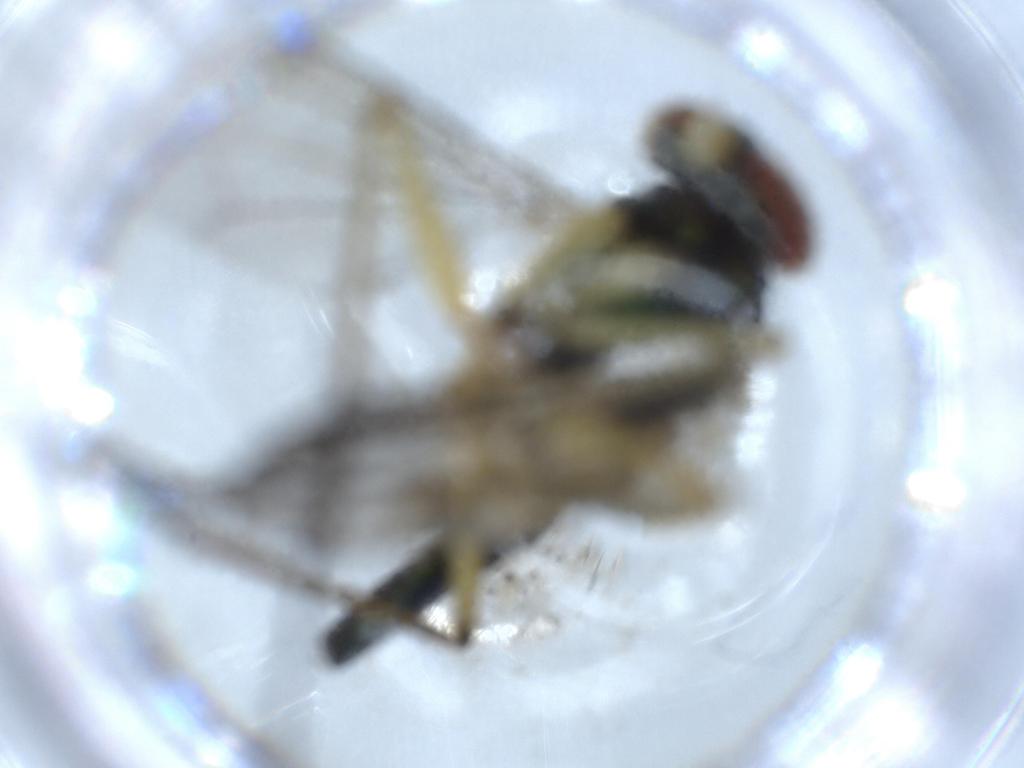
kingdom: Animalia
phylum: Arthropoda
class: Insecta
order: Diptera
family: Dolichopodidae
